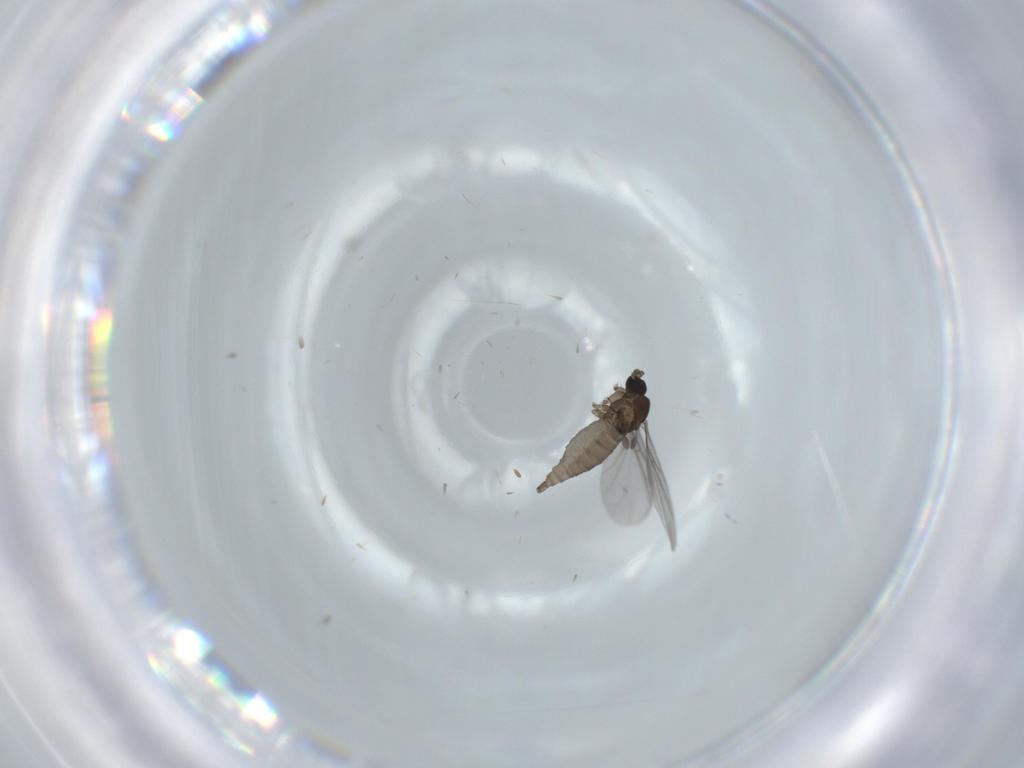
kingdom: Animalia
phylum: Arthropoda
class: Insecta
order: Diptera
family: Sciaridae
